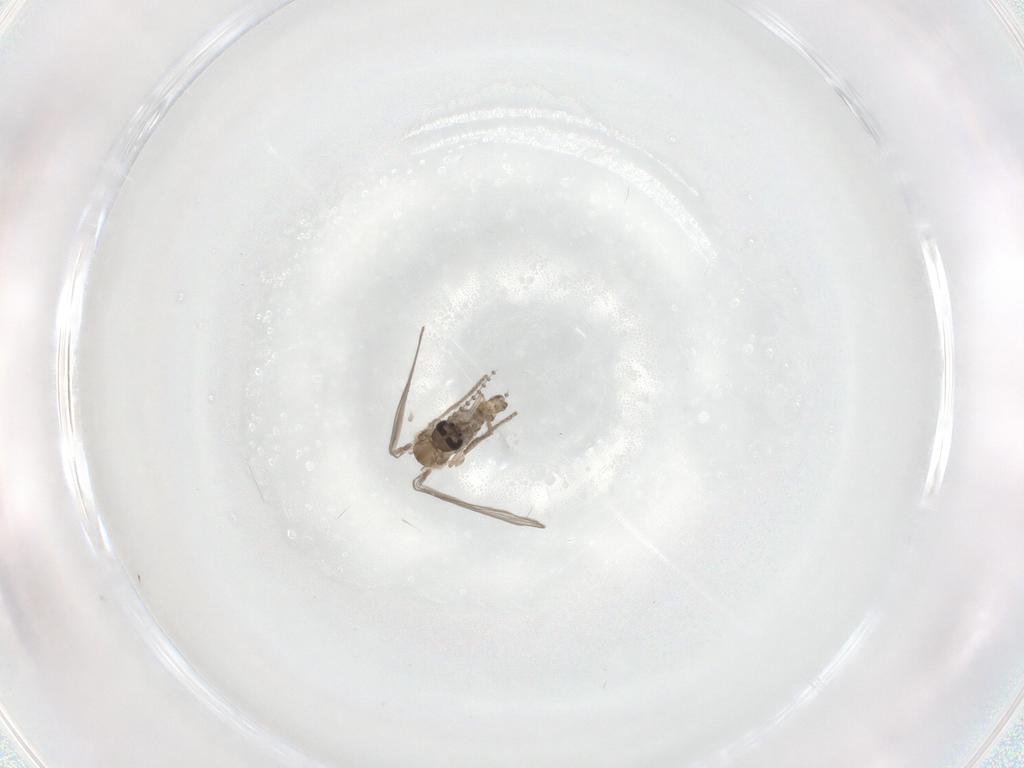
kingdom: Animalia
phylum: Arthropoda
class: Insecta
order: Diptera
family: Psychodidae
